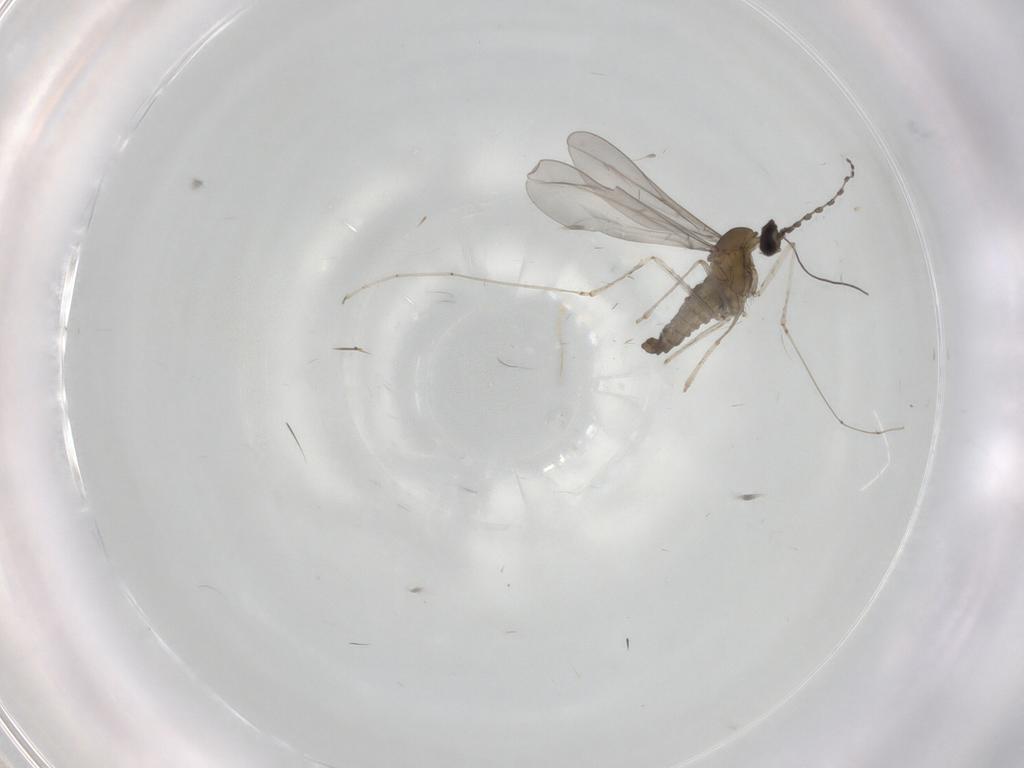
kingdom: Animalia
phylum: Arthropoda
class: Insecta
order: Diptera
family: Cecidomyiidae
